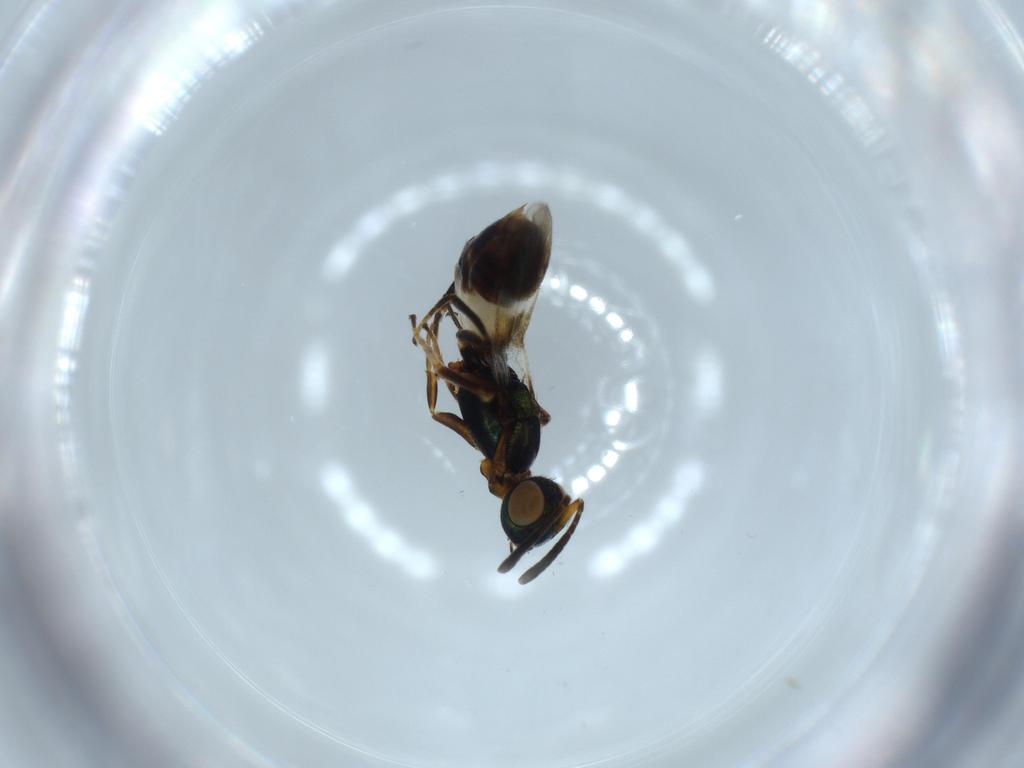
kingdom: Animalia
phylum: Arthropoda
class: Insecta
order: Hymenoptera
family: Eupelmidae
